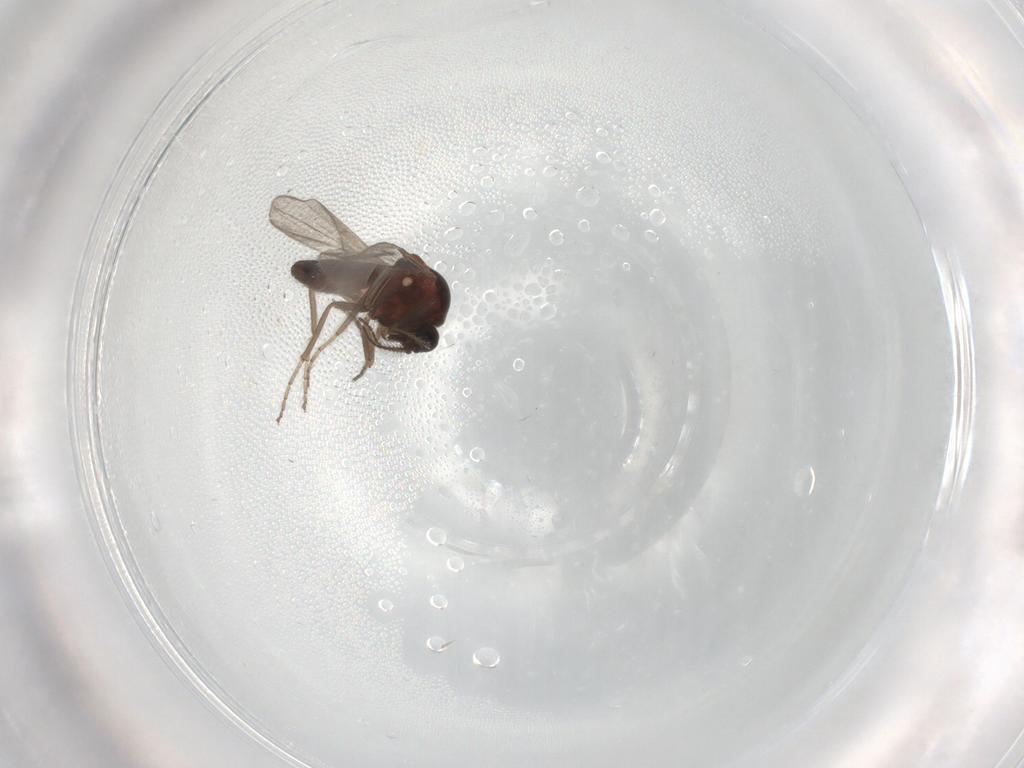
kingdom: Animalia
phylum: Arthropoda
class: Insecta
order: Diptera
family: Ceratopogonidae
